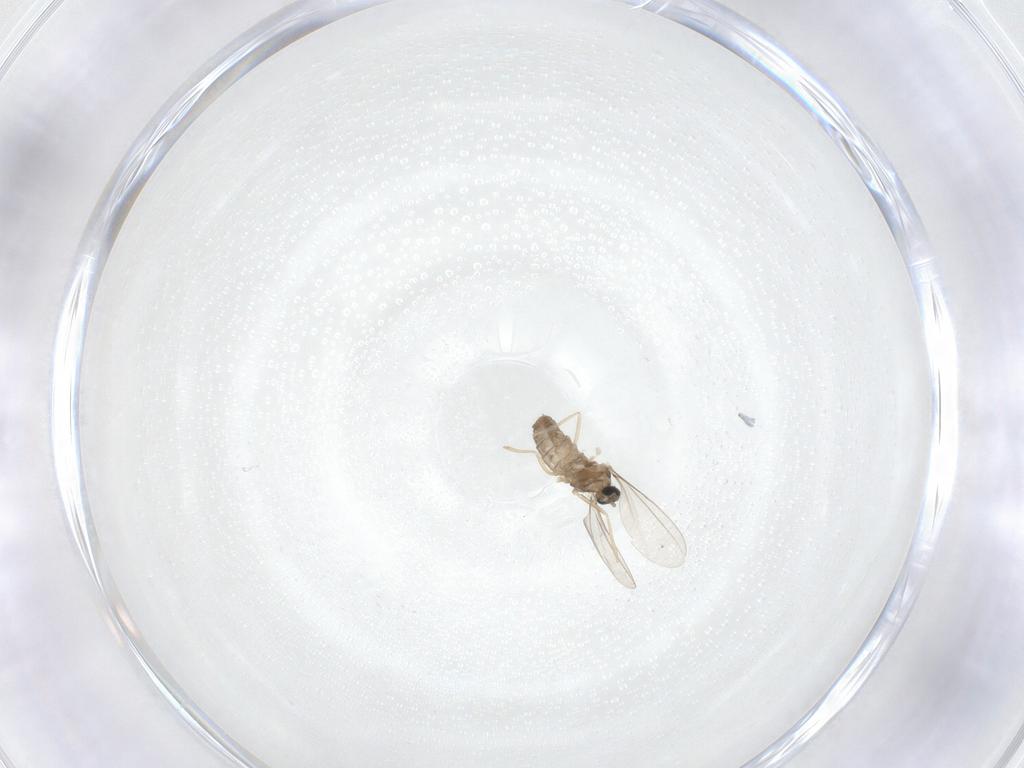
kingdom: Animalia
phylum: Arthropoda
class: Insecta
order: Diptera
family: Cecidomyiidae
